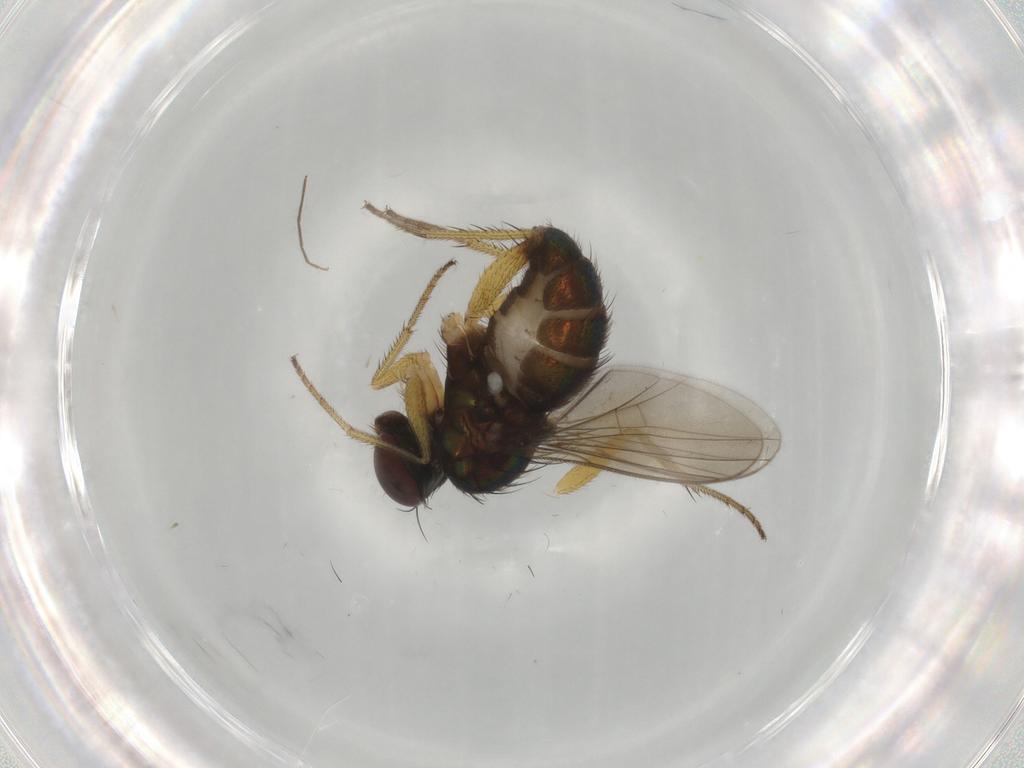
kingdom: Animalia
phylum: Arthropoda
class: Insecta
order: Diptera
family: Dolichopodidae
